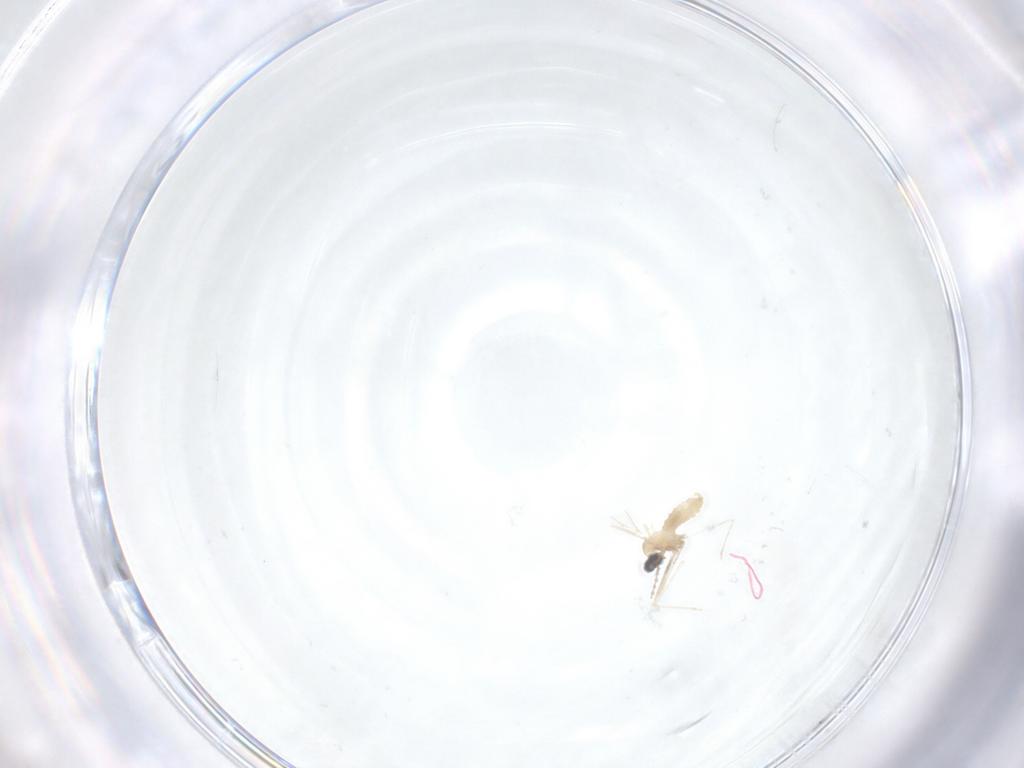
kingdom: Animalia
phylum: Arthropoda
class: Insecta
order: Diptera
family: Cecidomyiidae
